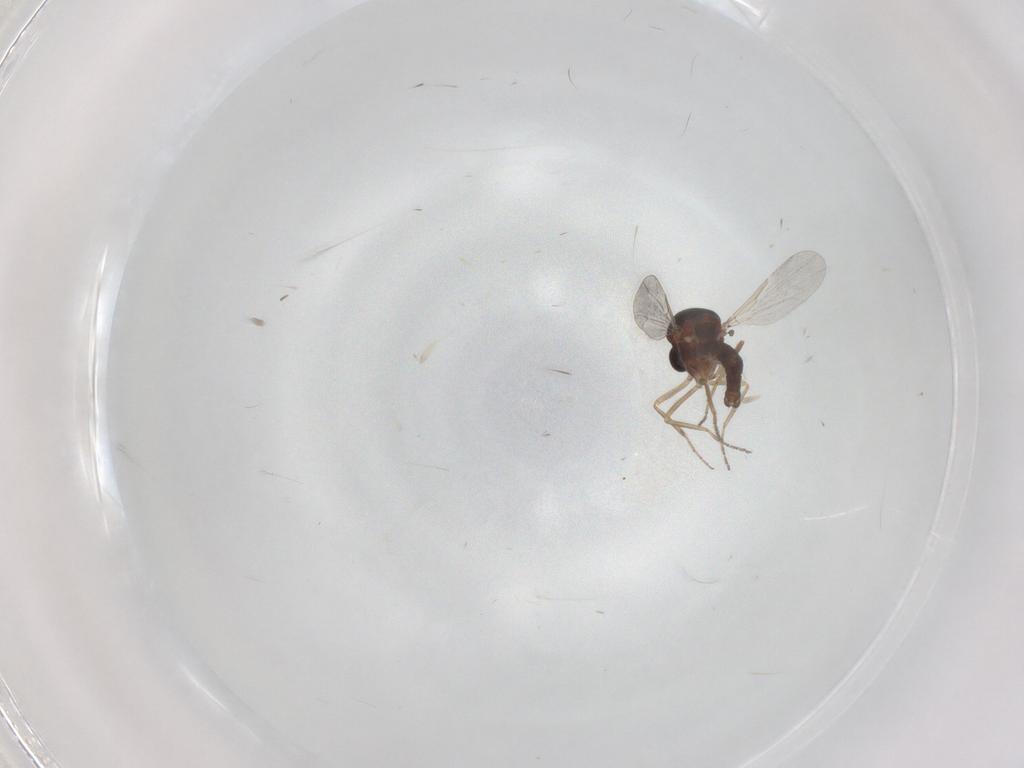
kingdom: Animalia
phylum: Arthropoda
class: Insecta
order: Diptera
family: Ceratopogonidae
